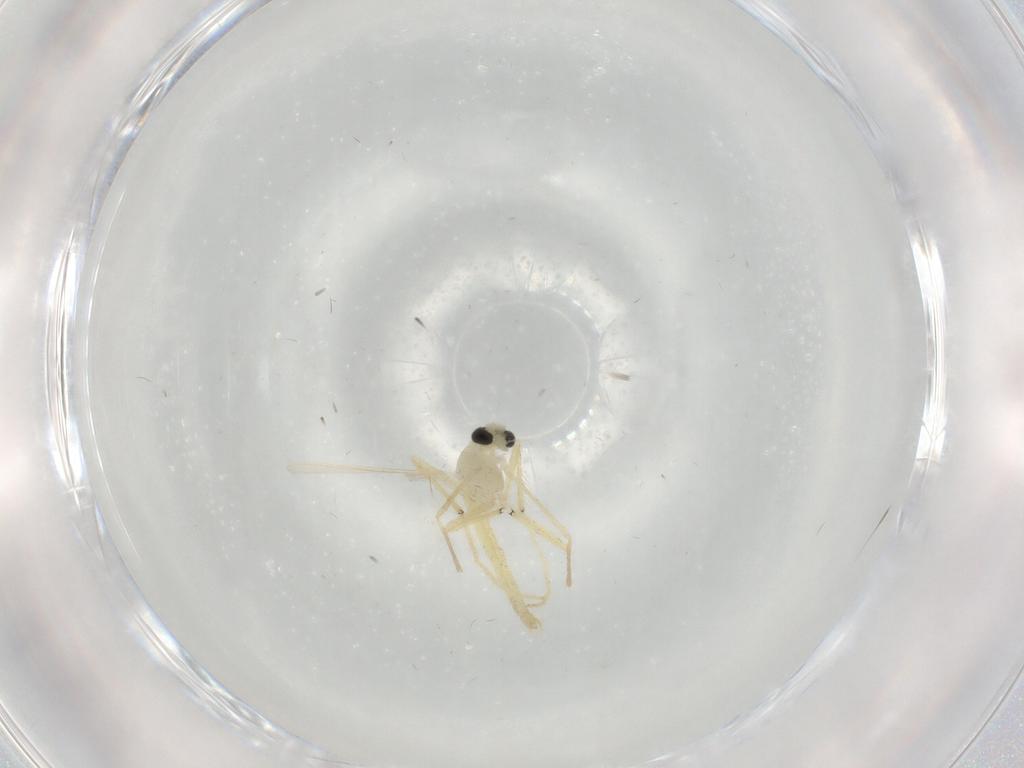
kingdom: Animalia
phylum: Arthropoda
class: Insecta
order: Diptera
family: Chironomidae
